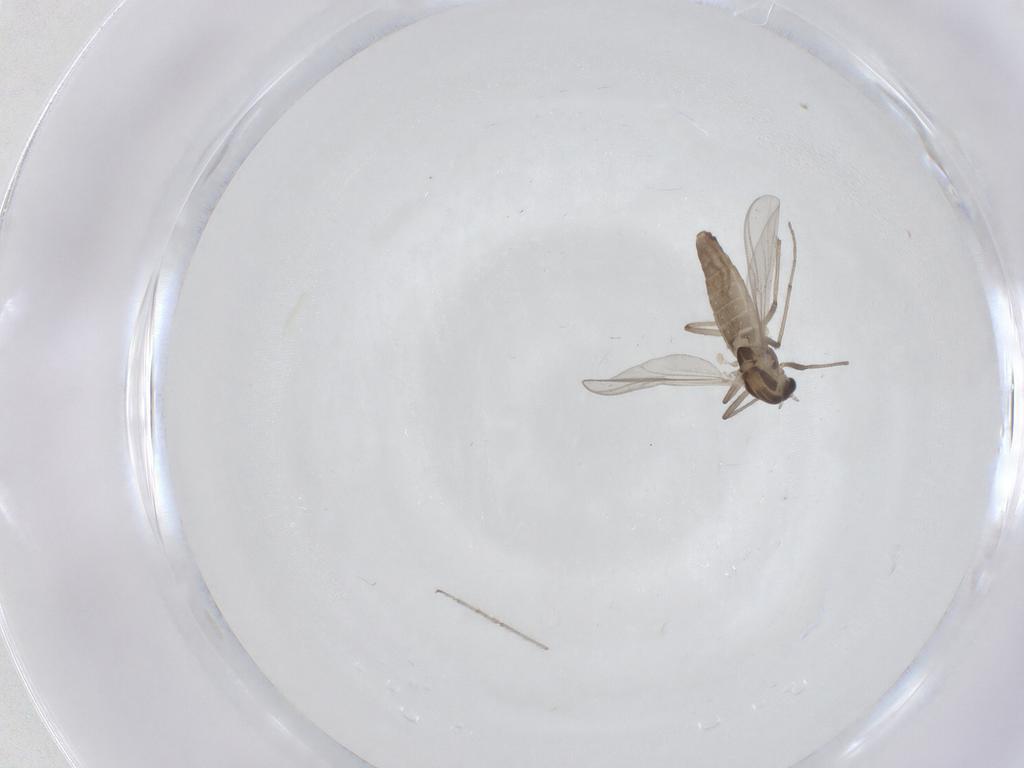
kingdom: Animalia
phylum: Arthropoda
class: Insecta
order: Diptera
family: Chironomidae
